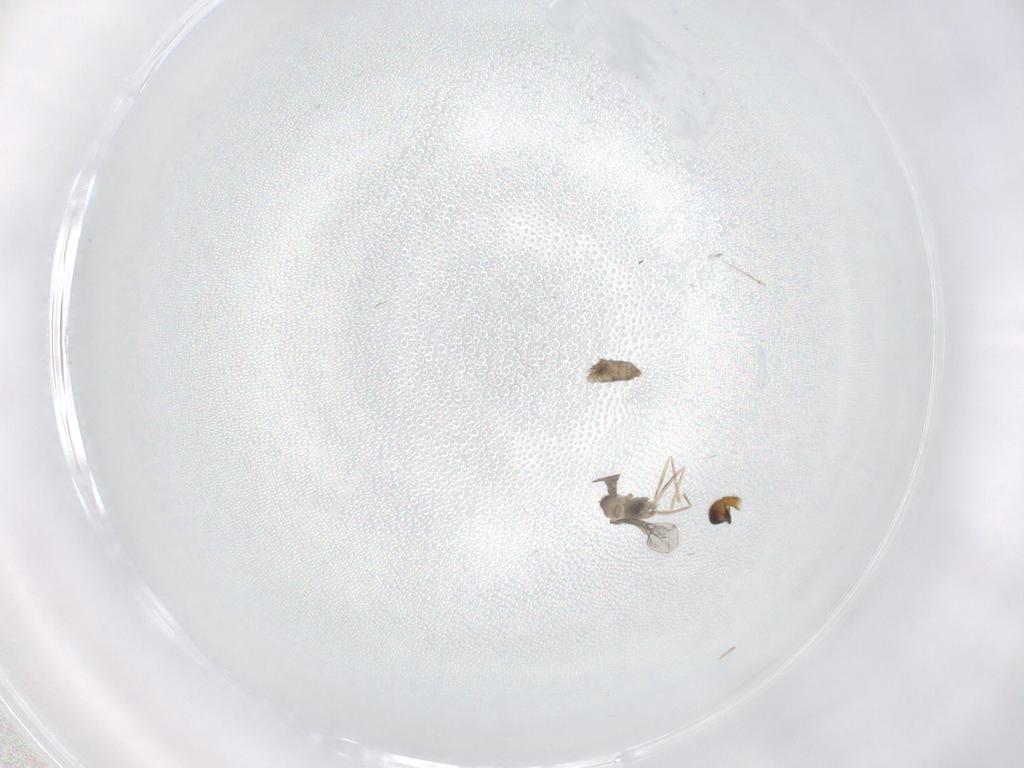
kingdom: Animalia
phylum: Arthropoda
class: Insecta
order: Diptera
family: Cecidomyiidae
